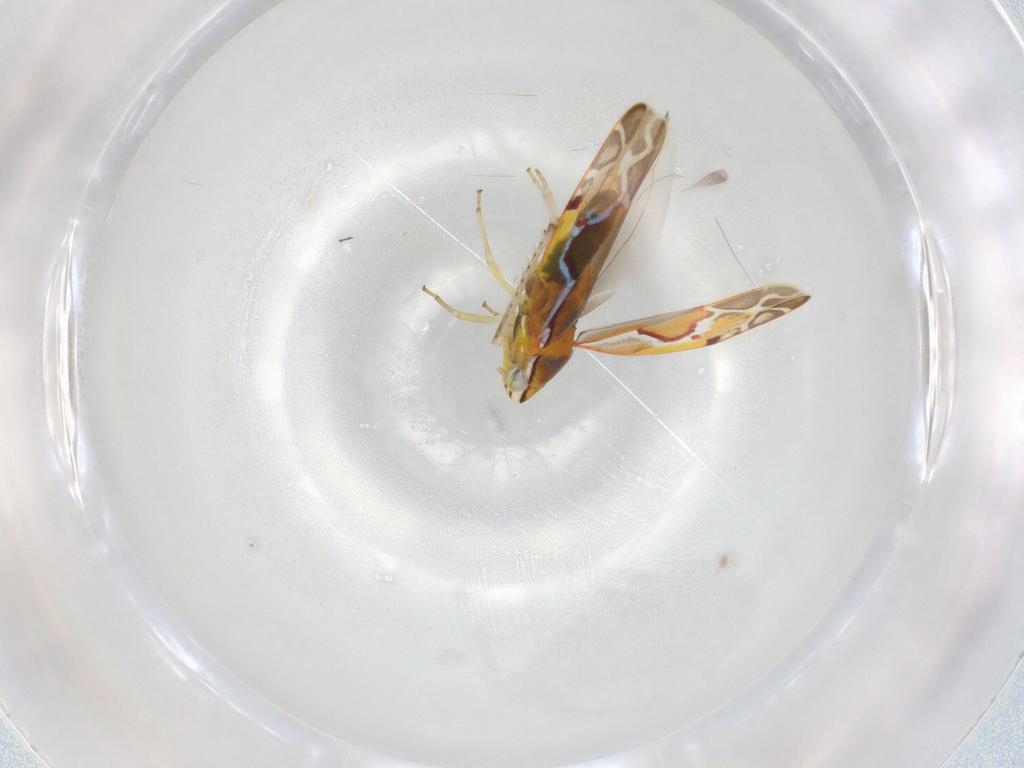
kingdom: Animalia
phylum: Arthropoda
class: Insecta
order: Hemiptera
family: Cicadellidae
